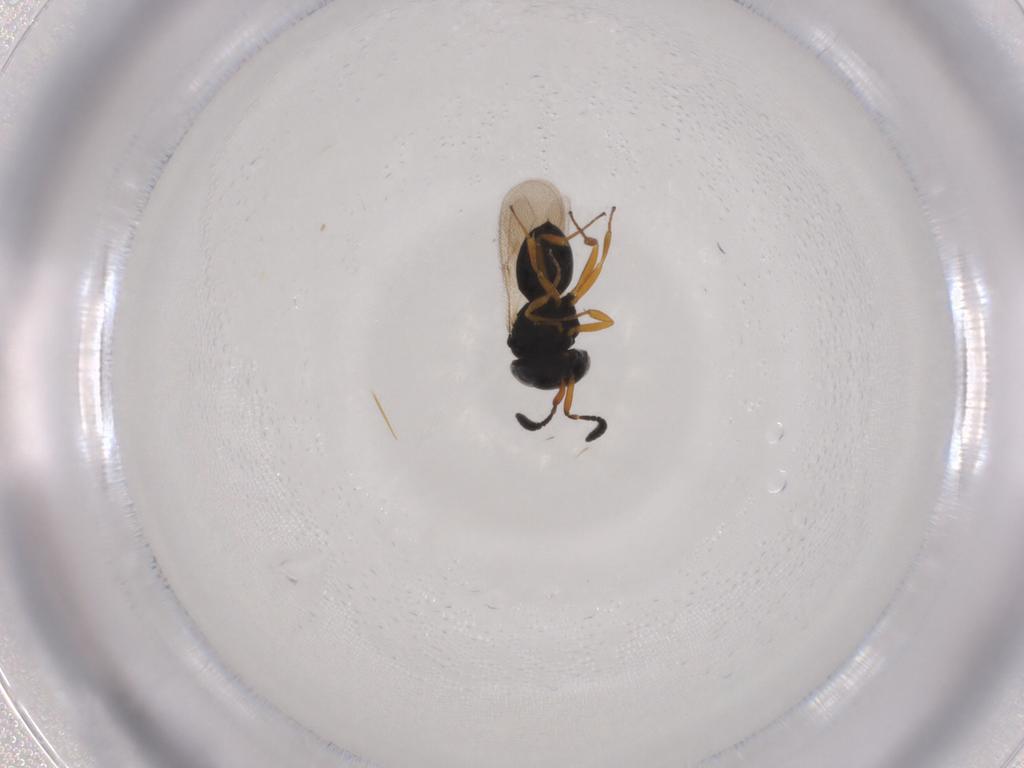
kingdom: Animalia
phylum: Arthropoda
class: Insecta
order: Hymenoptera
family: Scelionidae
